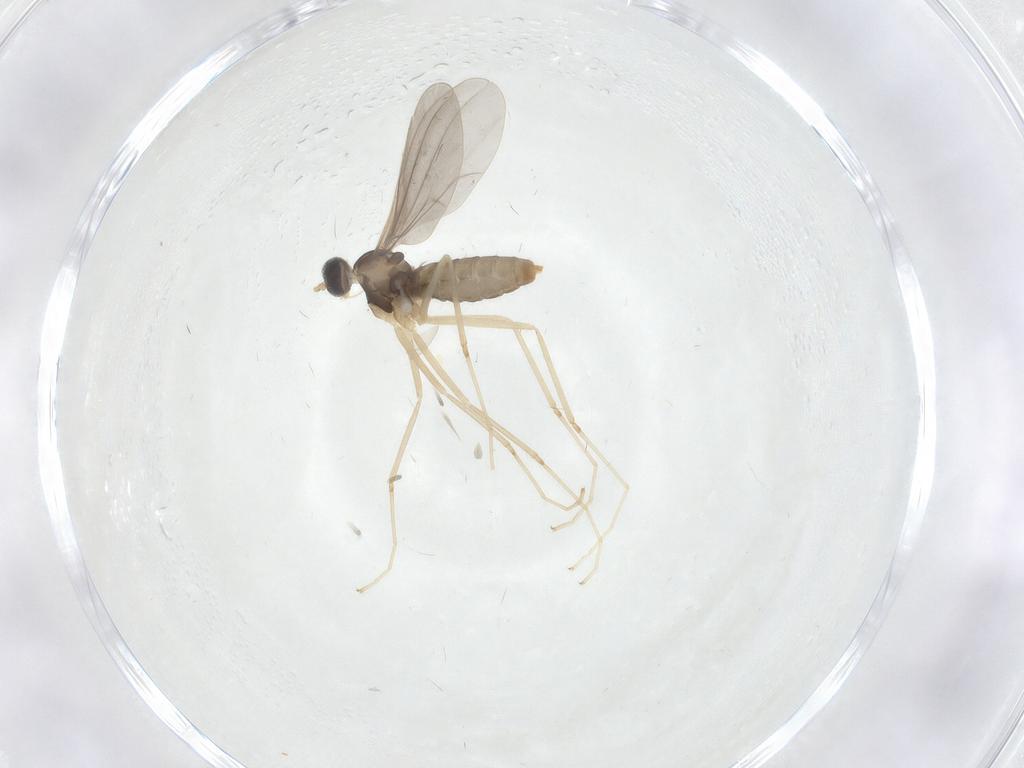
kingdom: Animalia
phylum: Arthropoda
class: Insecta
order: Diptera
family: Cecidomyiidae
